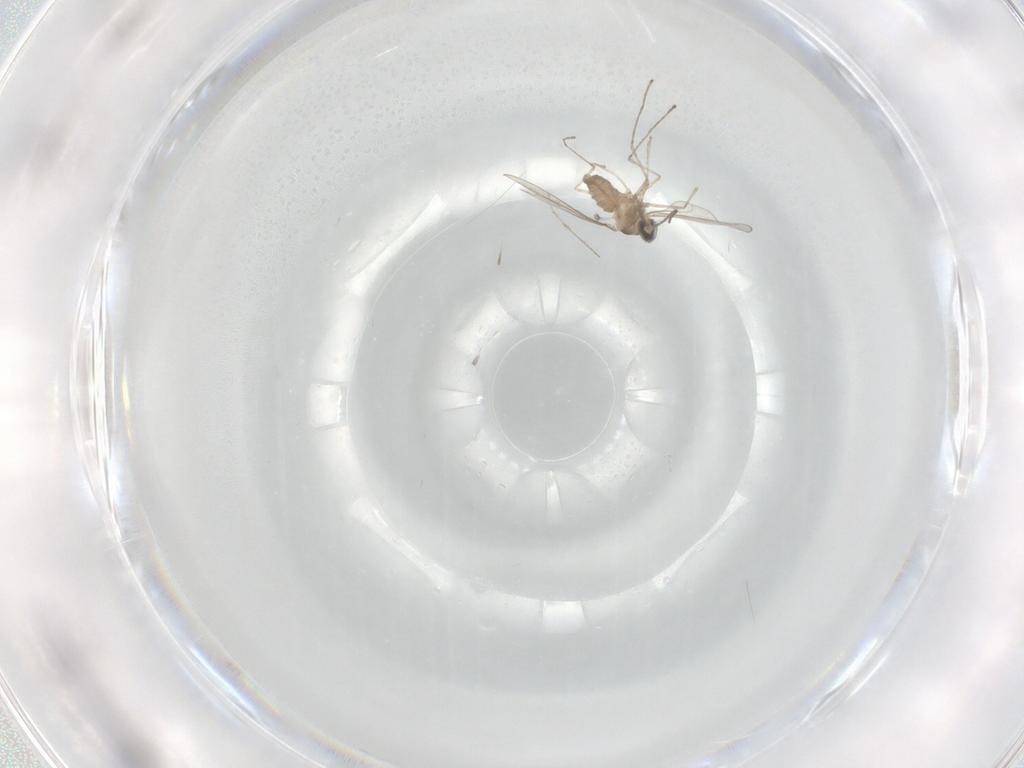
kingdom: Animalia
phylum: Arthropoda
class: Insecta
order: Diptera
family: Cecidomyiidae
